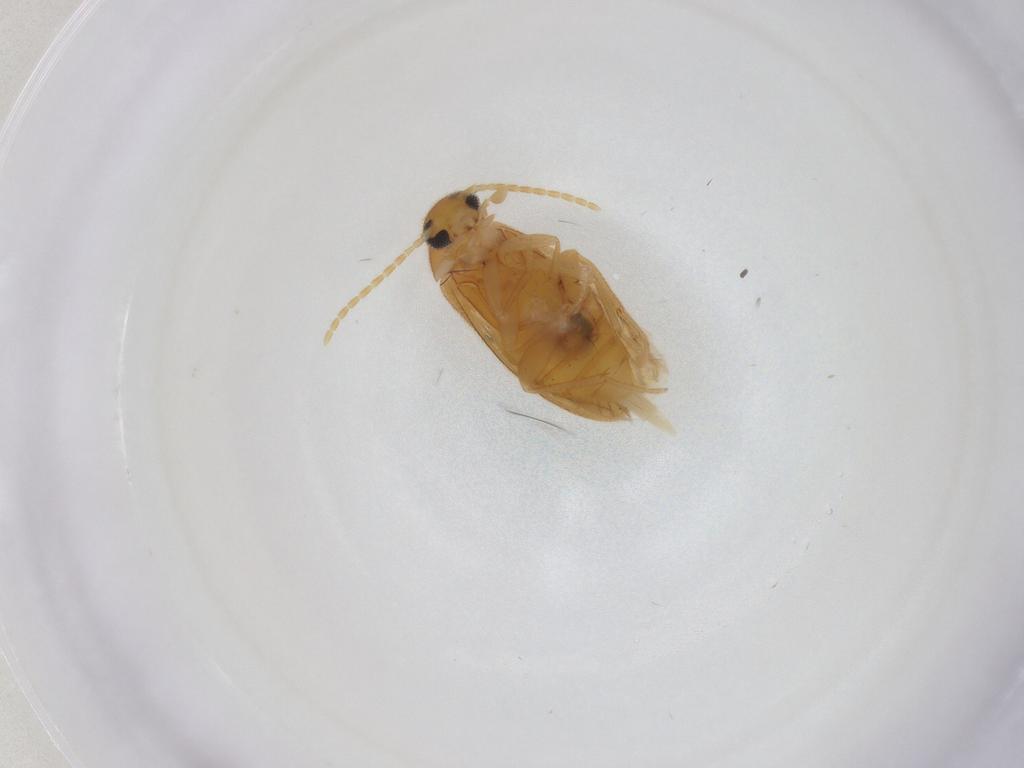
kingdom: Animalia
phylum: Arthropoda
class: Insecta
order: Coleoptera
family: Scraptiidae
